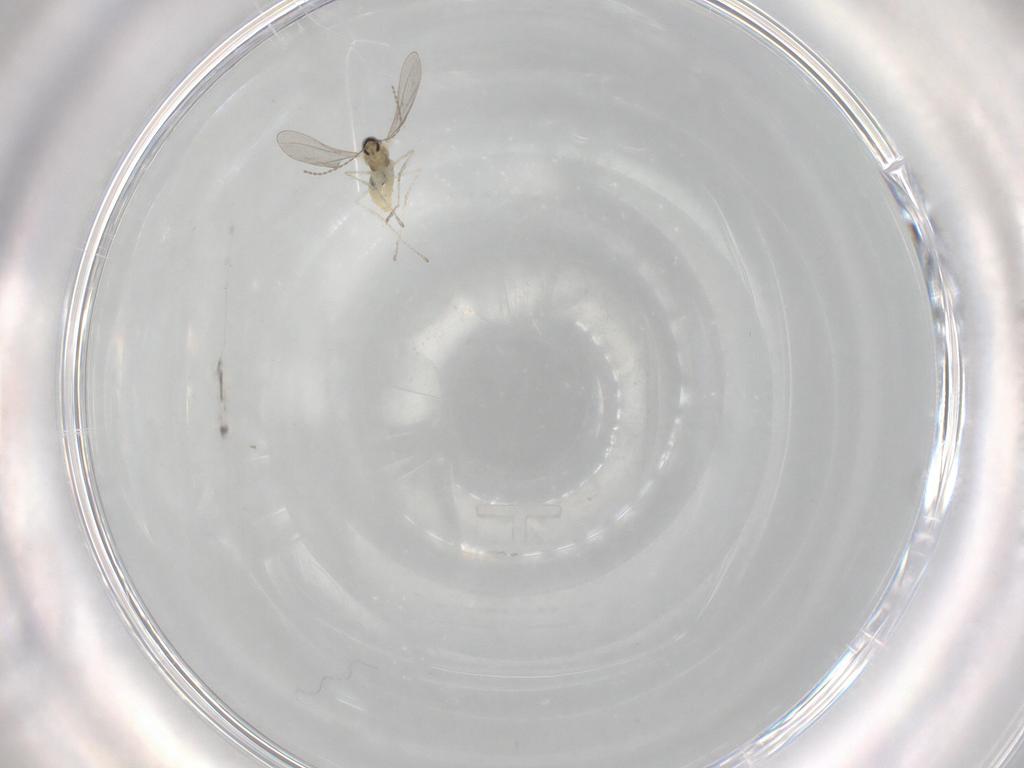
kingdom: Animalia
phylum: Arthropoda
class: Insecta
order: Diptera
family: Cecidomyiidae
